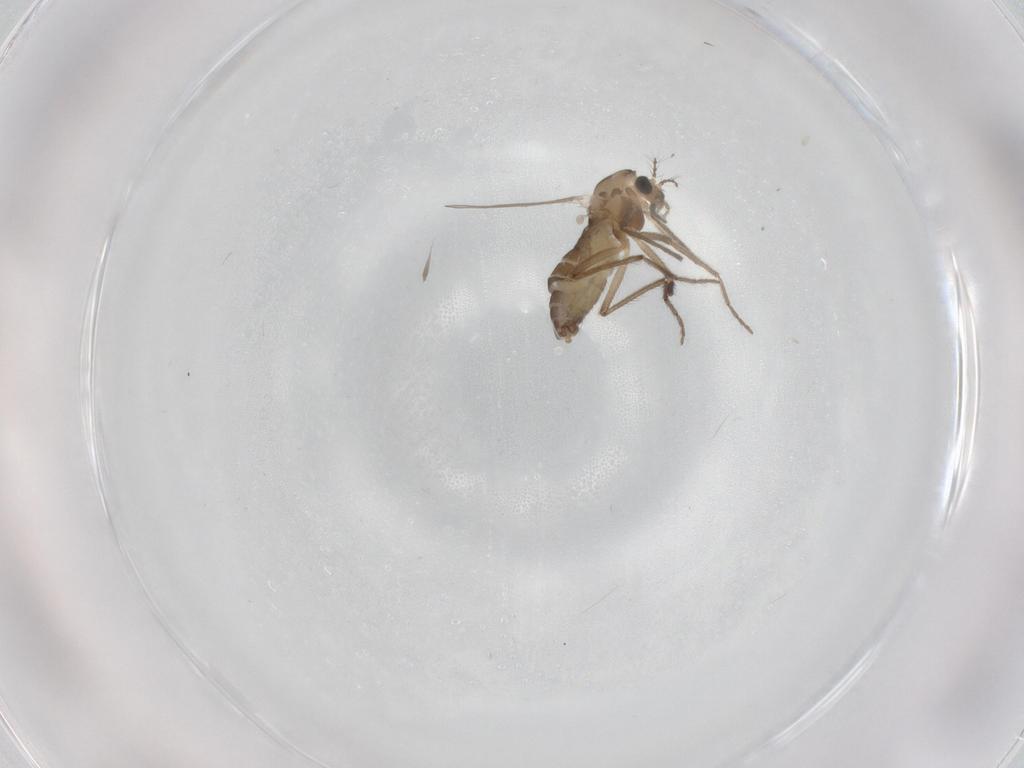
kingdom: Animalia
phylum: Arthropoda
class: Insecta
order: Diptera
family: Chironomidae
